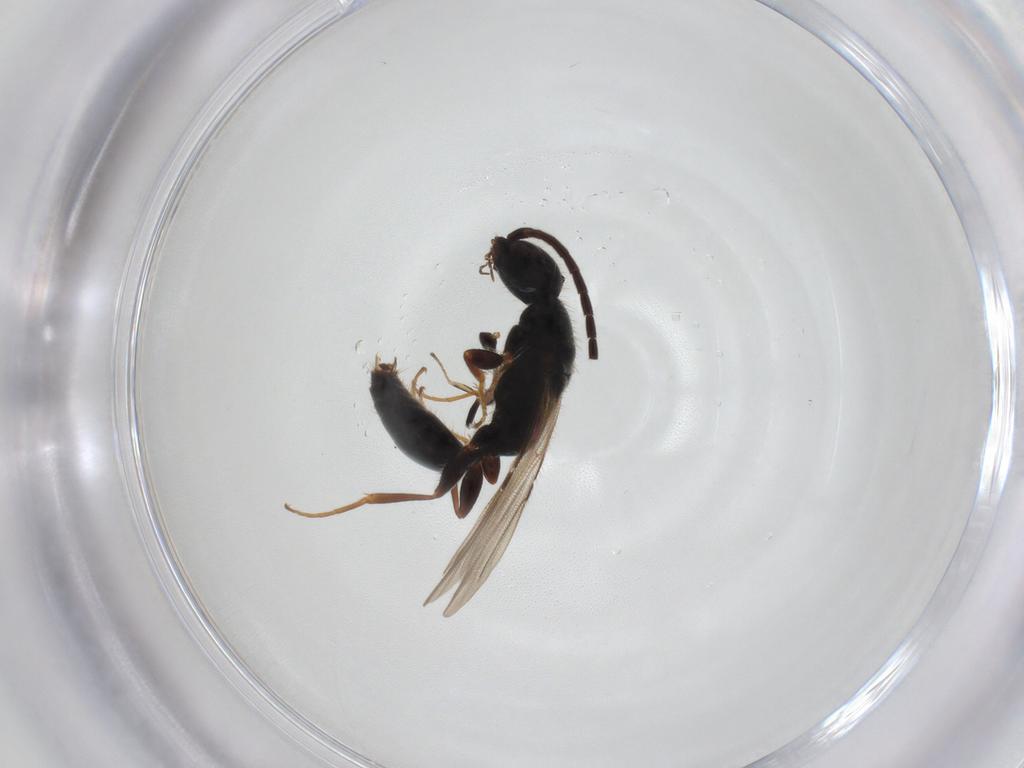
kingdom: Animalia
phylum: Arthropoda
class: Insecta
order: Hymenoptera
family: Bethylidae
